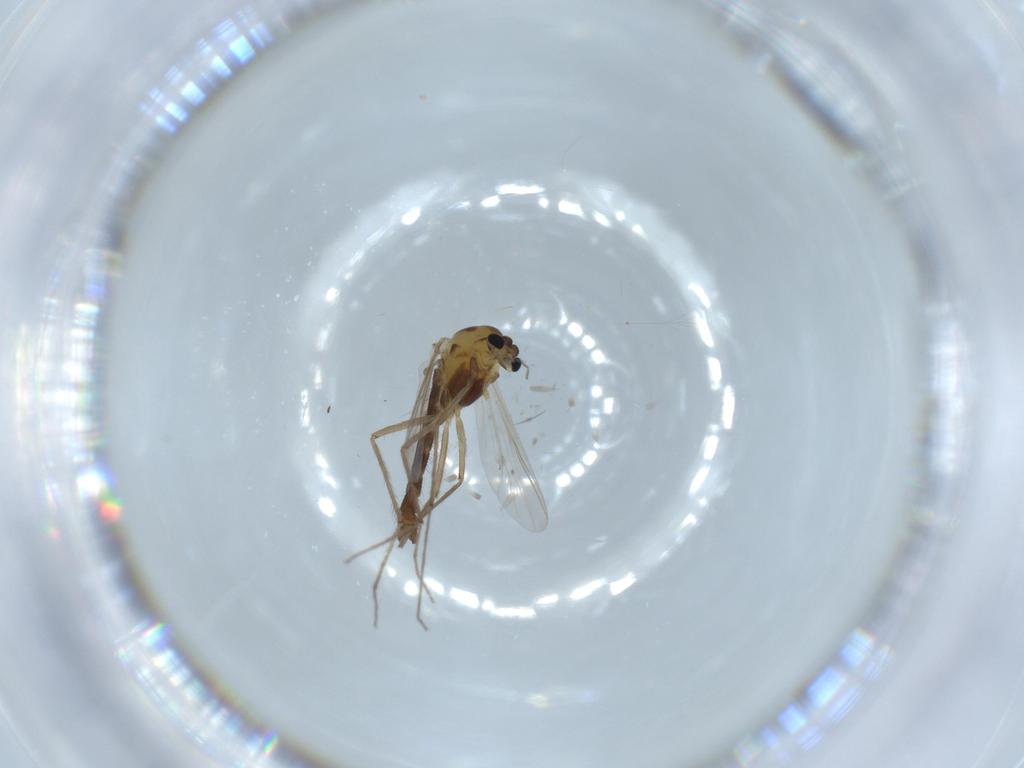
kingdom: Animalia
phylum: Arthropoda
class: Insecta
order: Diptera
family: Chironomidae
